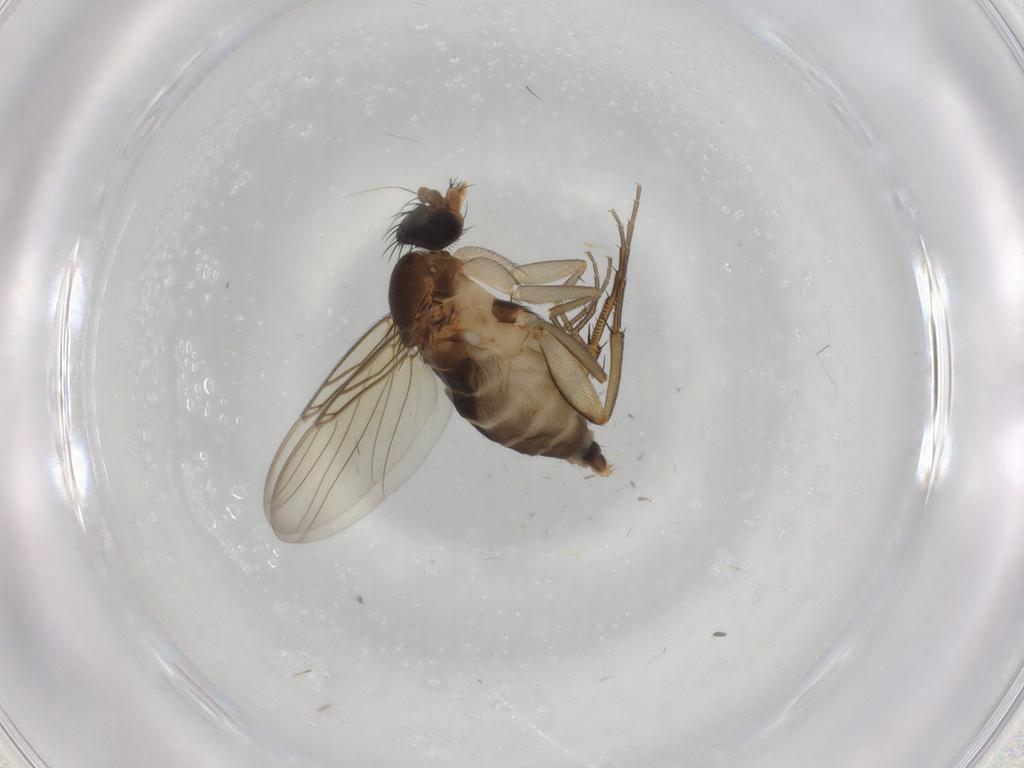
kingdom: Animalia
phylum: Arthropoda
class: Insecta
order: Diptera
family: Phoridae
